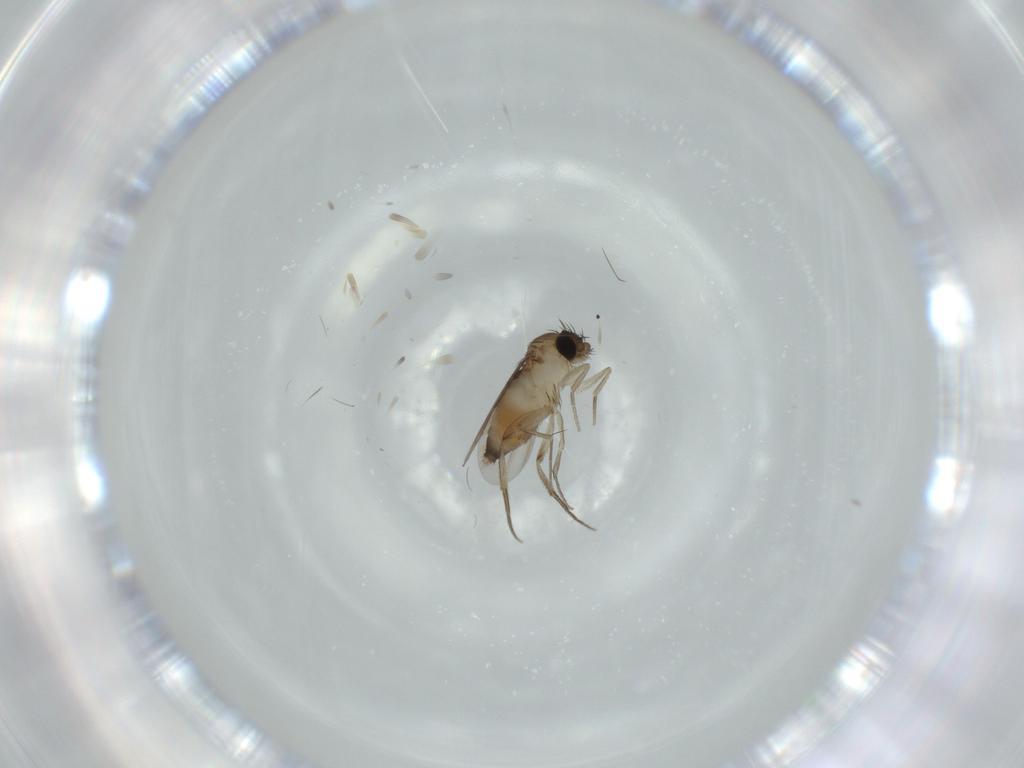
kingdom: Animalia
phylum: Arthropoda
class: Insecta
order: Diptera
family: Phoridae
